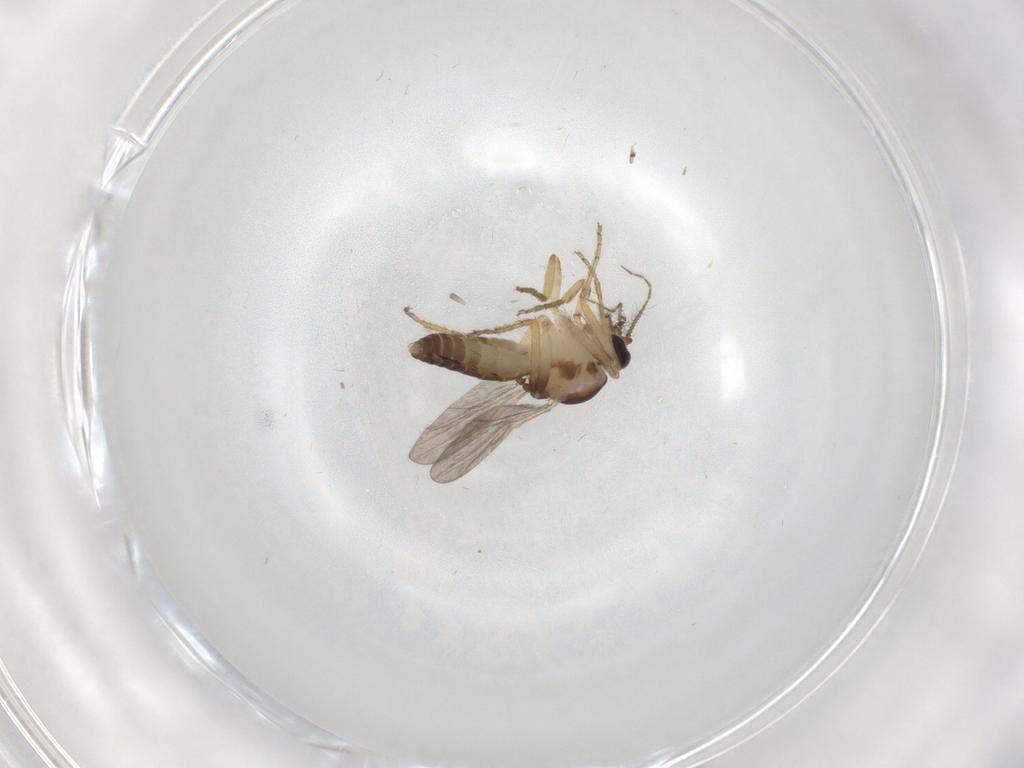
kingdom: Animalia
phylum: Arthropoda
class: Insecta
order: Diptera
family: Ceratopogonidae
